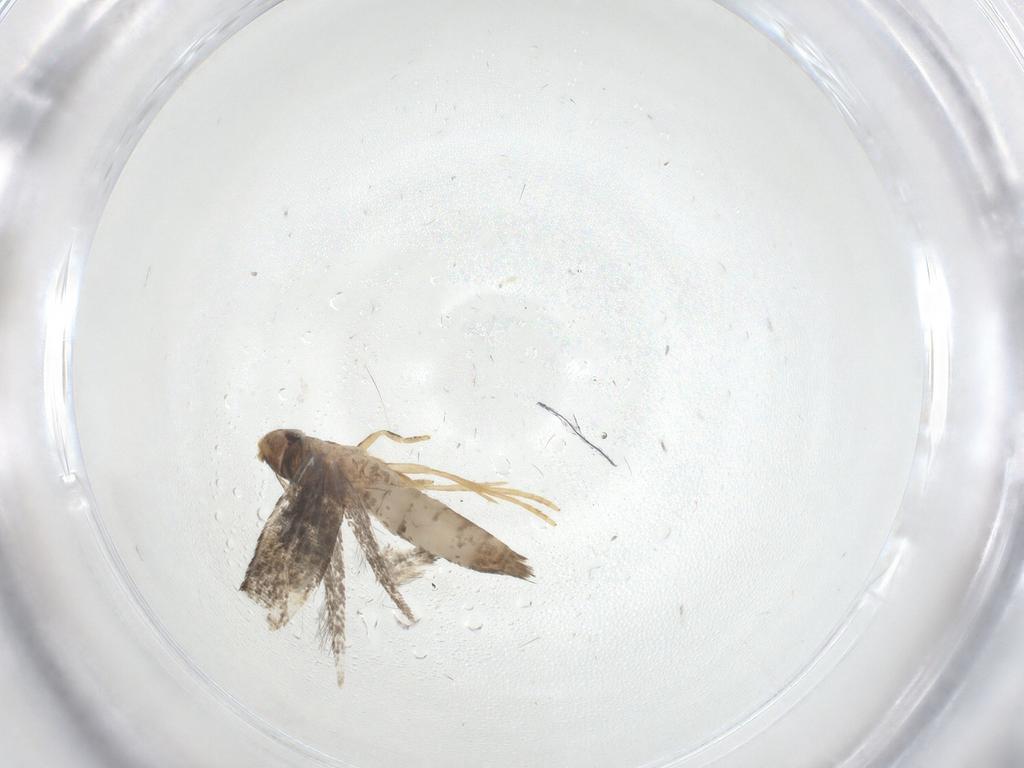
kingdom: Animalia
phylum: Arthropoda
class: Insecta
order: Lepidoptera
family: Gelechiidae
